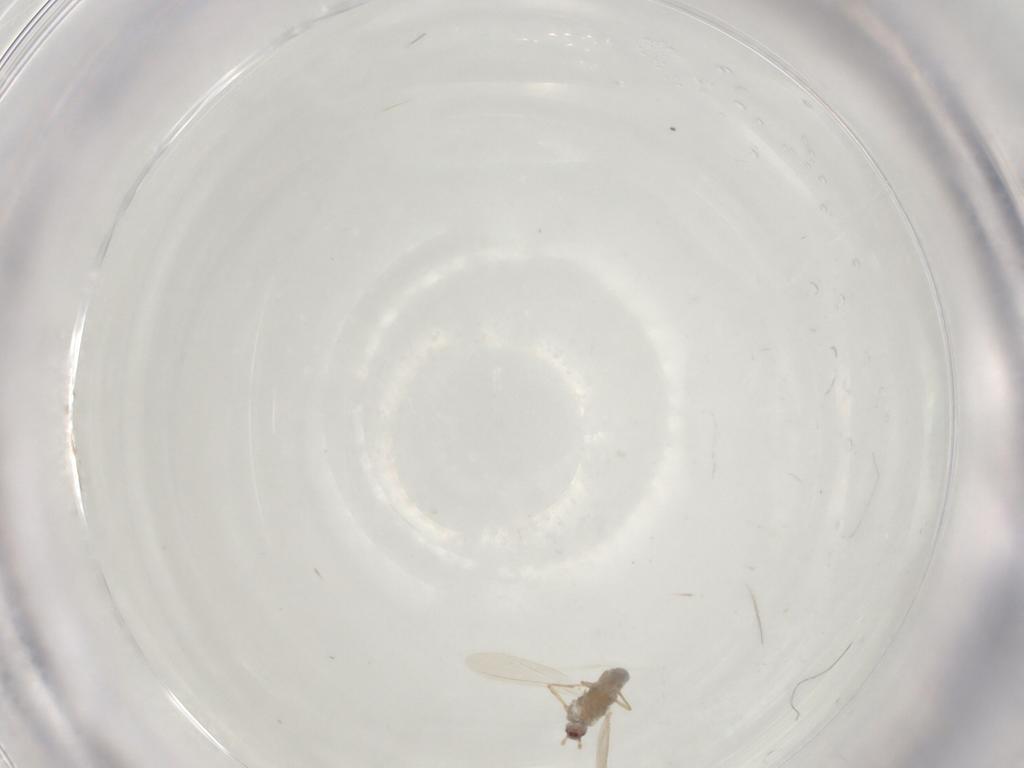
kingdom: Animalia
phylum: Arthropoda
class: Insecta
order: Diptera
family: Cecidomyiidae
